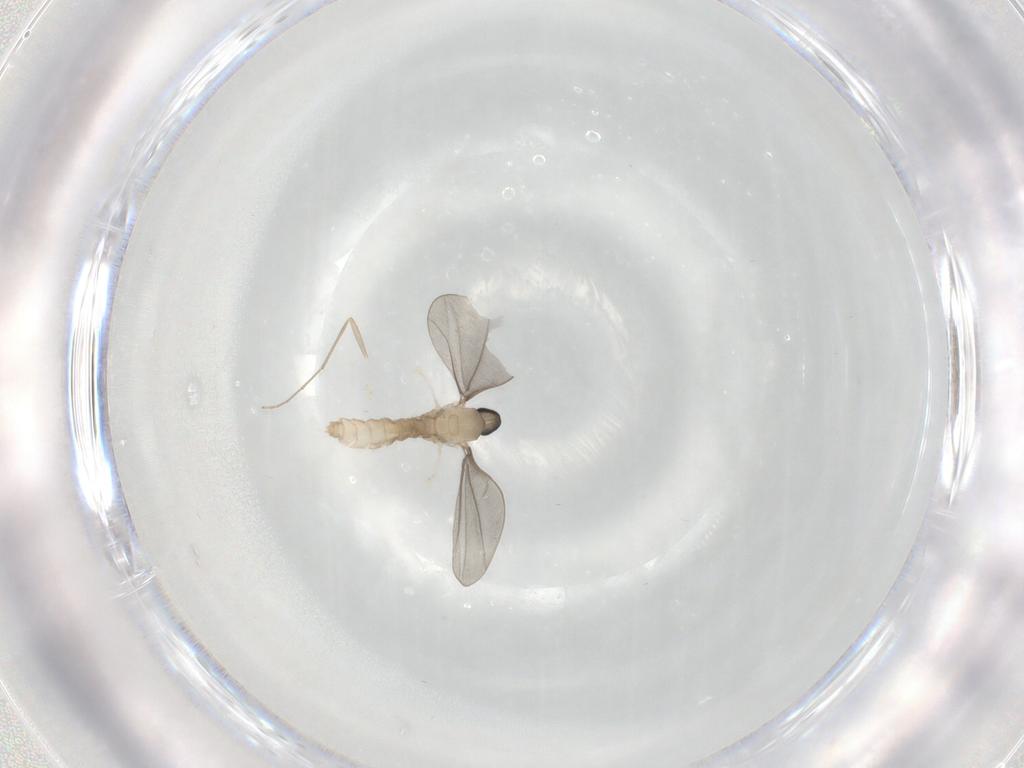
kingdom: Animalia
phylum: Arthropoda
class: Insecta
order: Diptera
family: Cecidomyiidae
